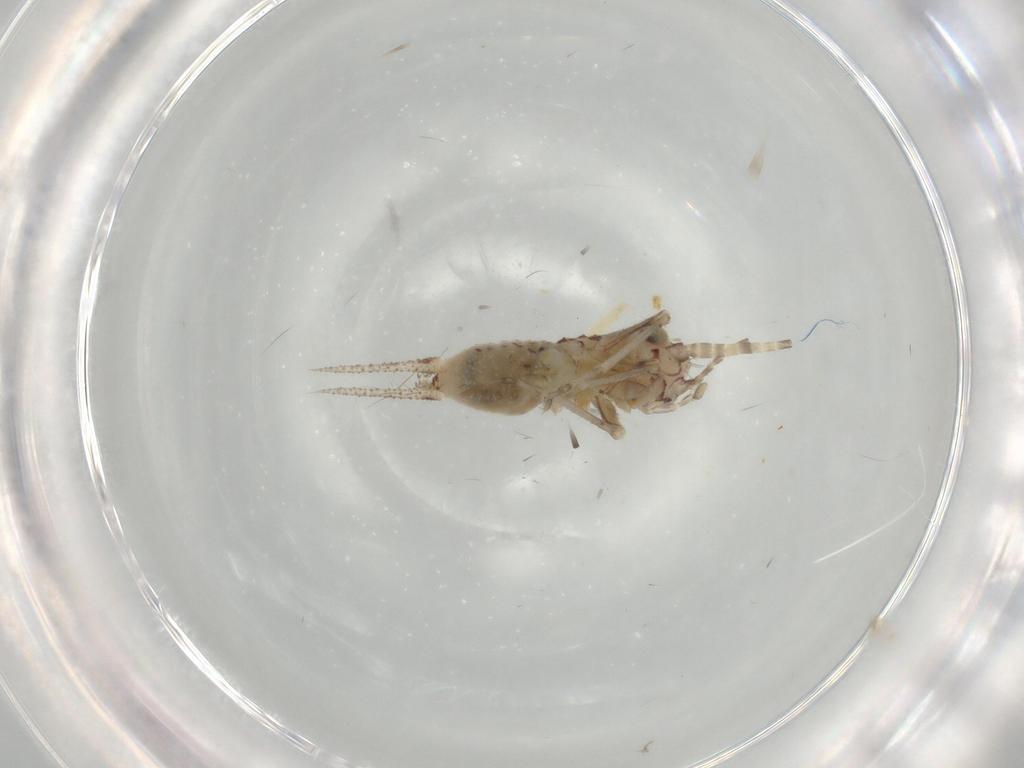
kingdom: Animalia
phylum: Arthropoda
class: Insecta
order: Orthoptera
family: Trigonidiidae
